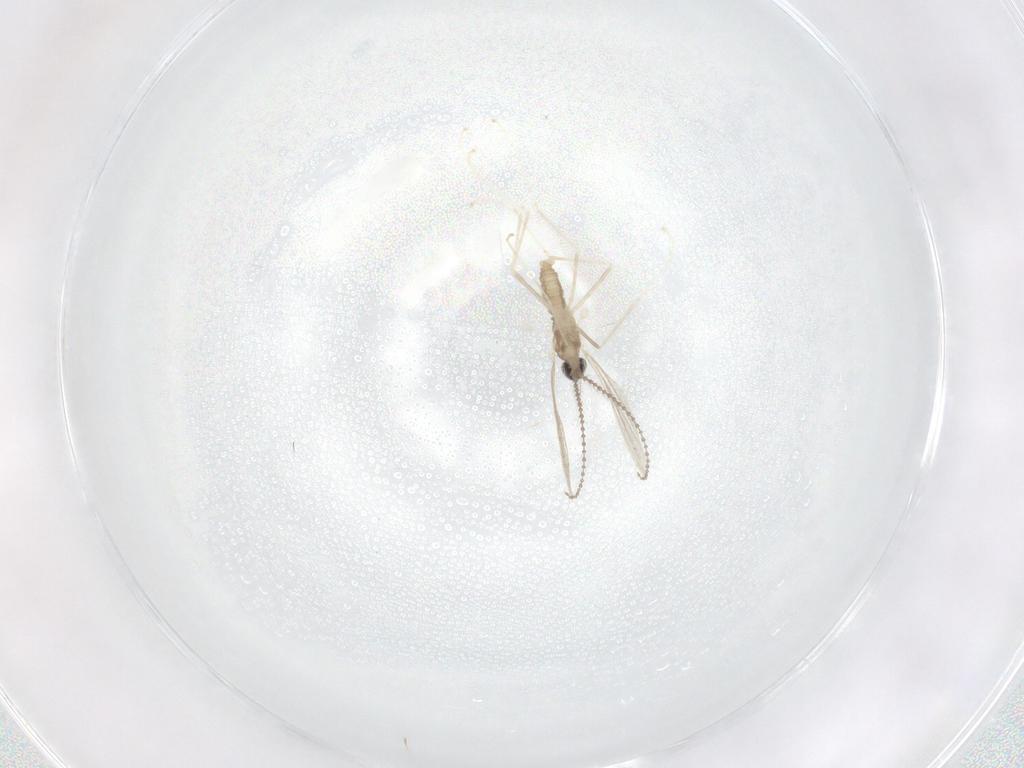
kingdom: Animalia
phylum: Arthropoda
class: Insecta
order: Diptera
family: Cecidomyiidae
